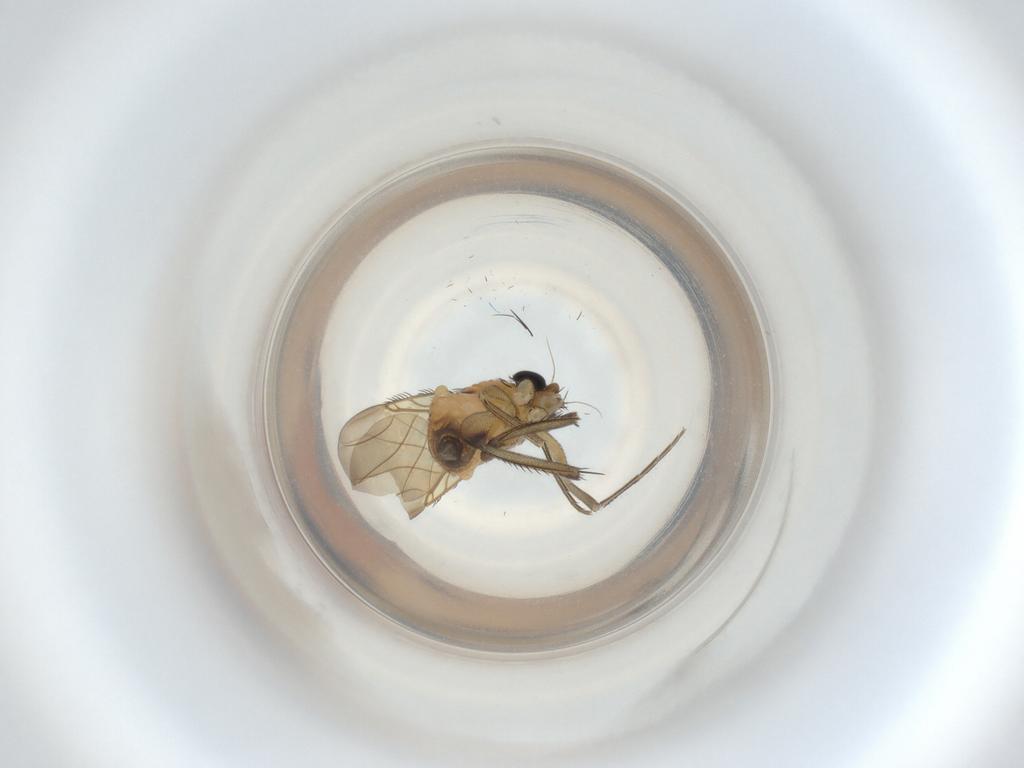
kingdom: Animalia
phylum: Arthropoda
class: Insecta
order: Diptera
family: Phoridae
